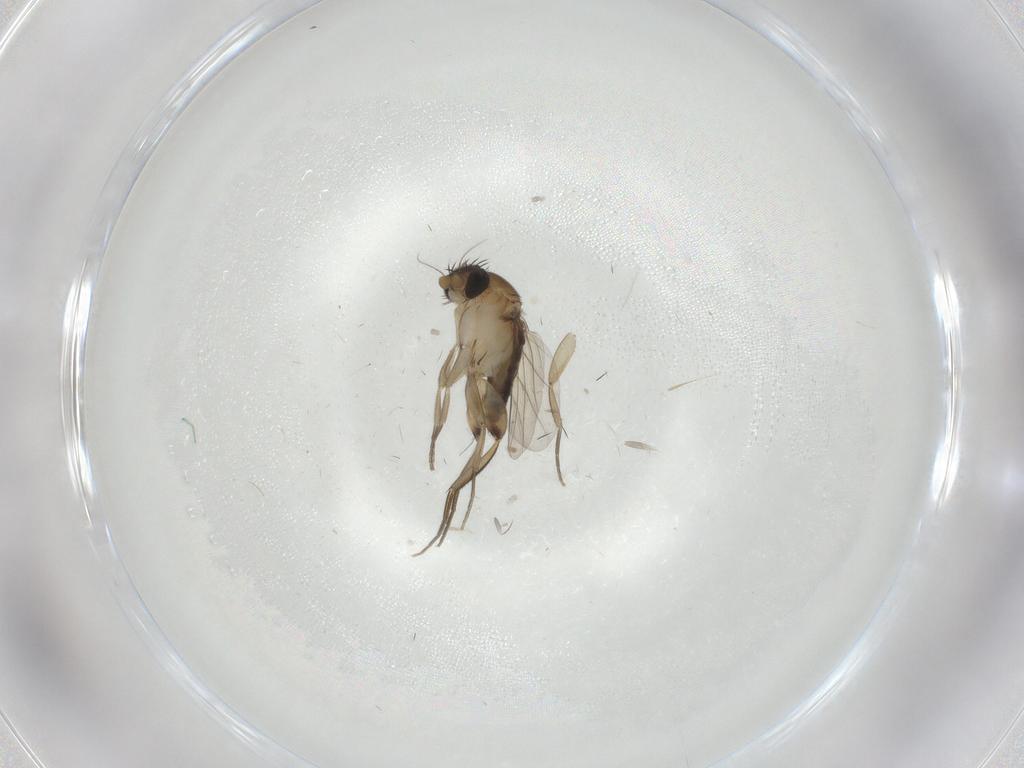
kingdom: Animalia
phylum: Arthropoda
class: Insecta
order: Diptera
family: Phoridae
